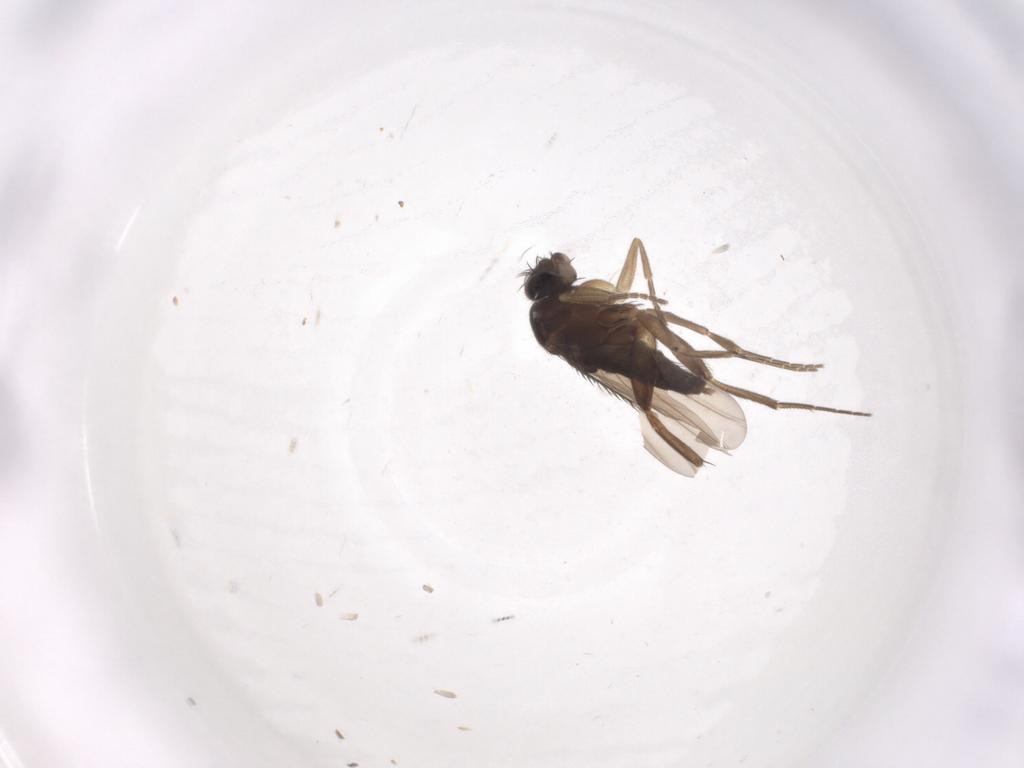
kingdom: Animalia
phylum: Arthropoda
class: Insecta
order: Diptera
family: Phoridae
